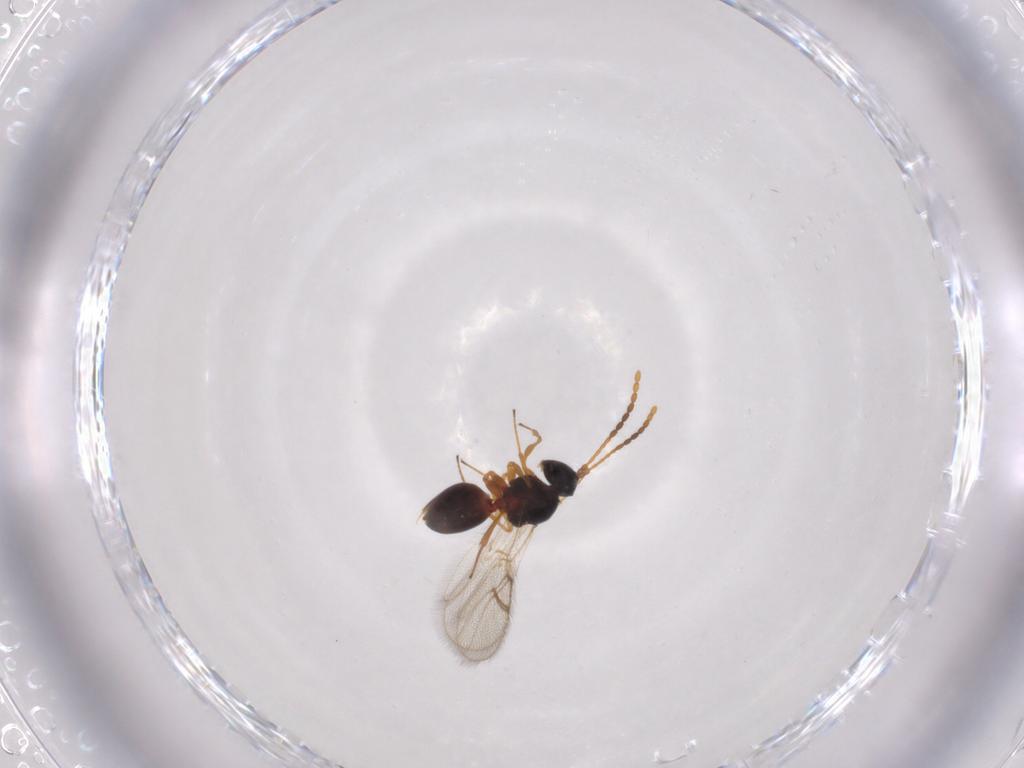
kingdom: Animalia
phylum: Arthropoda
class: Insecta
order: Hymenoptera
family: Figitidae
